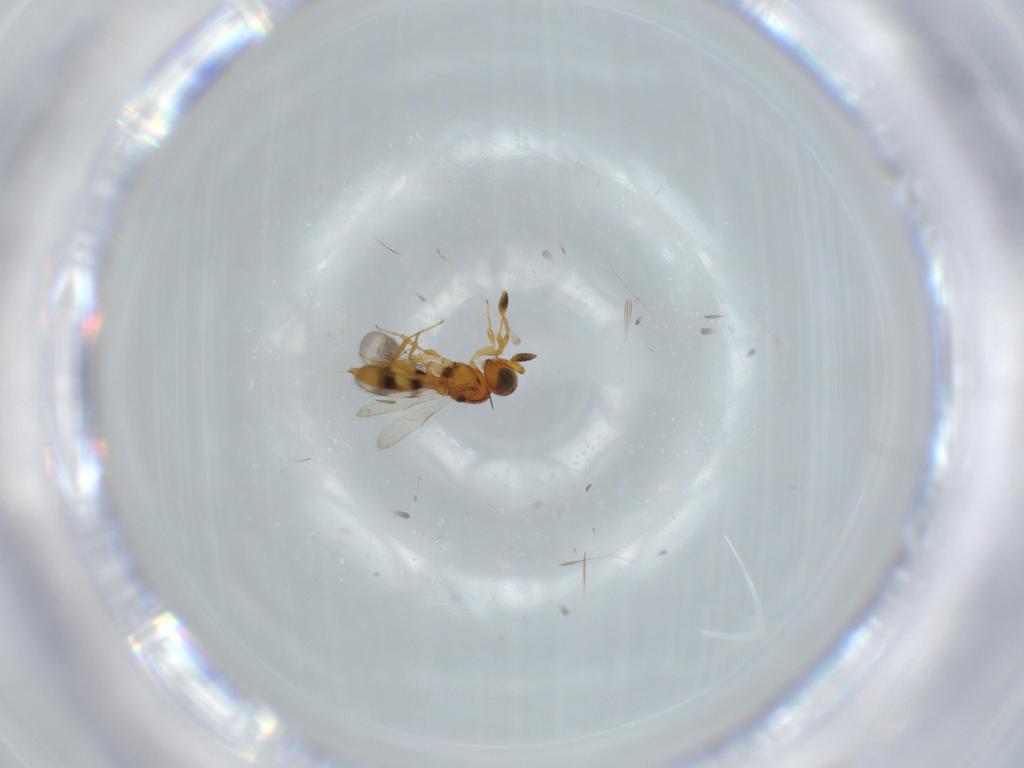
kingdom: Animalia
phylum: Arthropoda
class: Insecta
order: Hymenoptera
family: Scelionidae
